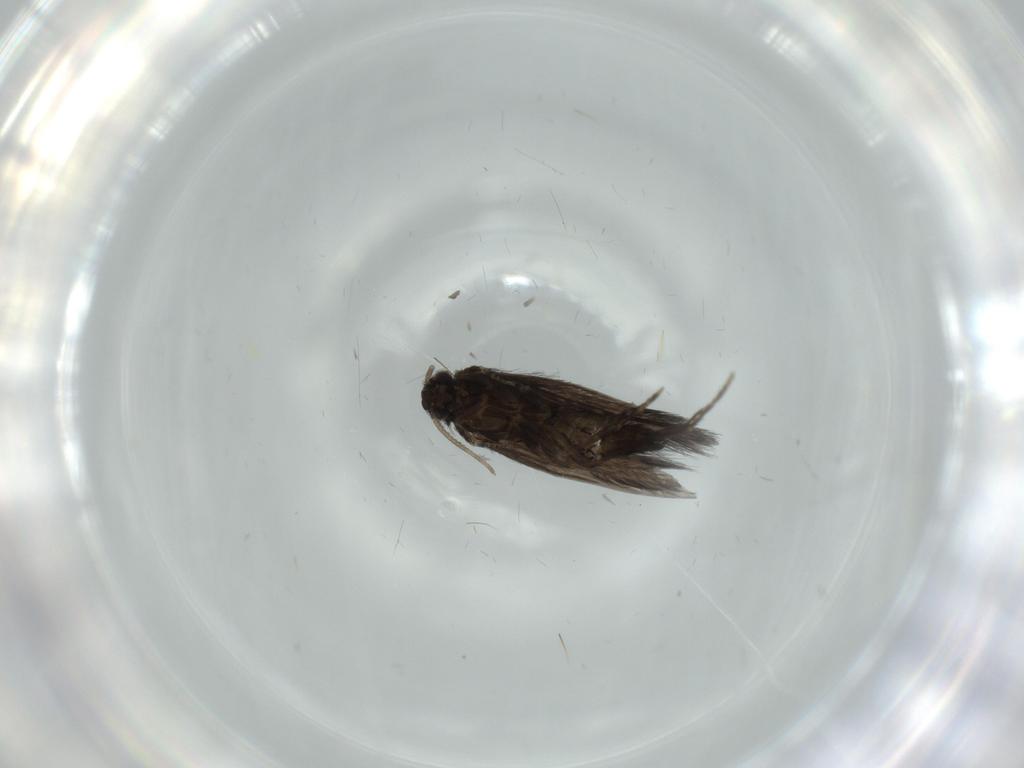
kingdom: Animalia
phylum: Arthropoda
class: Insecta
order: Trichoptera
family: Hydroptilidae
